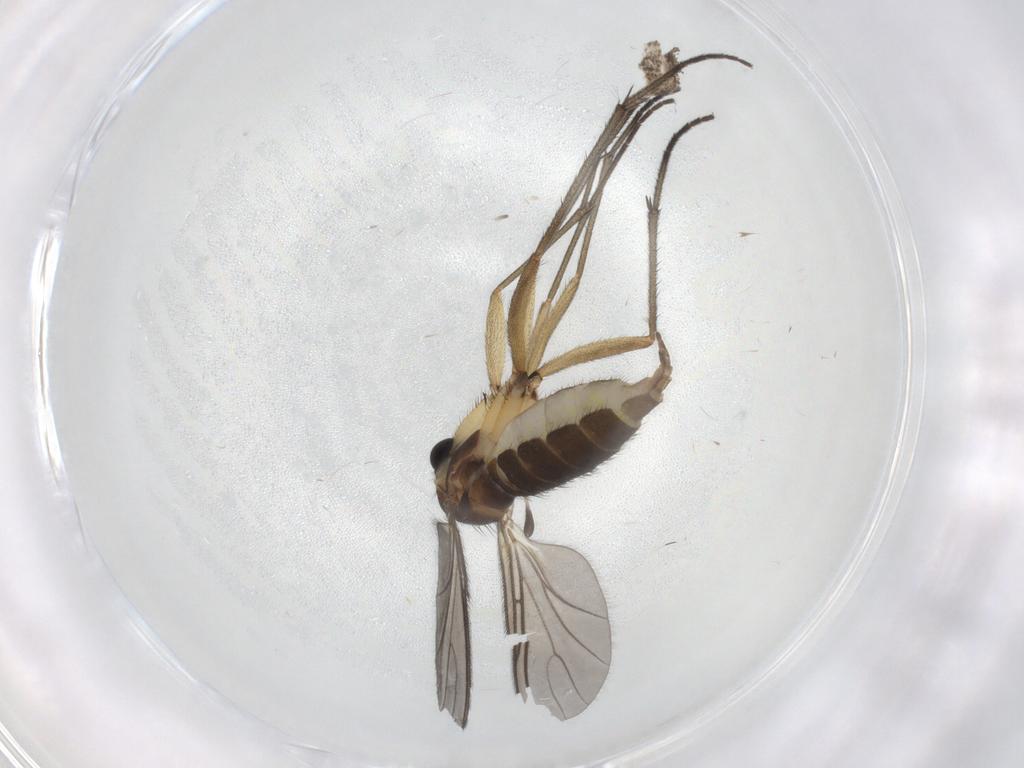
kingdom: Animalia
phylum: Arthropoda
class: Insecta
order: Diptera
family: Sciaridae
